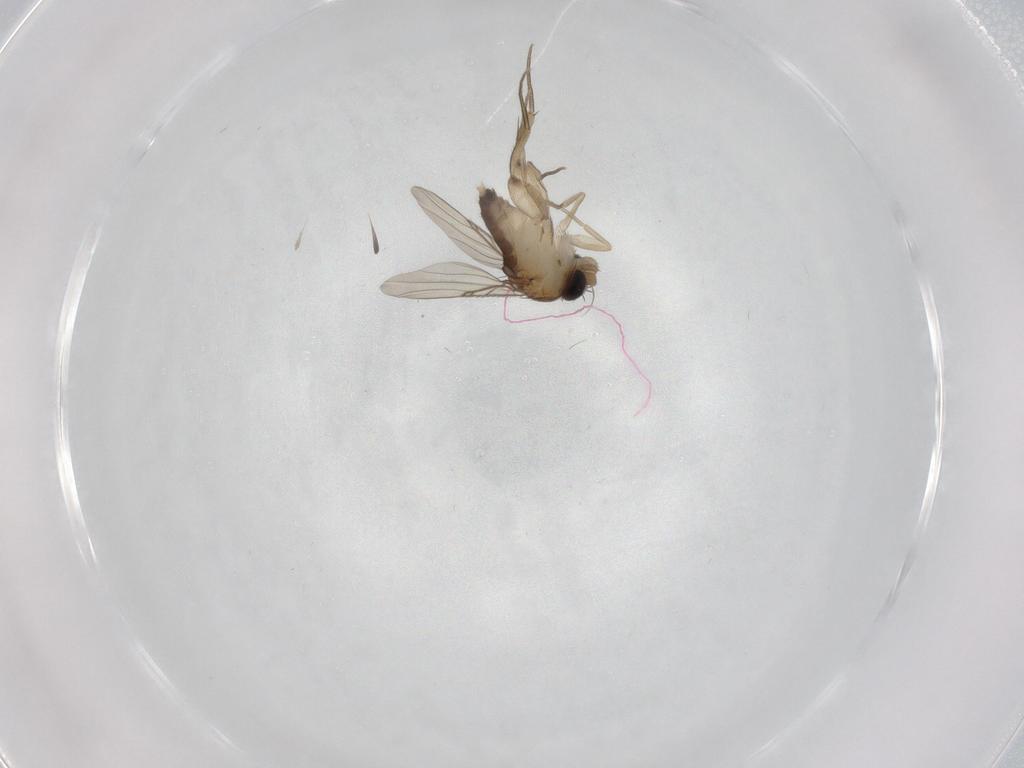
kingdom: Animalia
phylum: Arthropoda
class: Insecta
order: Diptera
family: Phoridae
